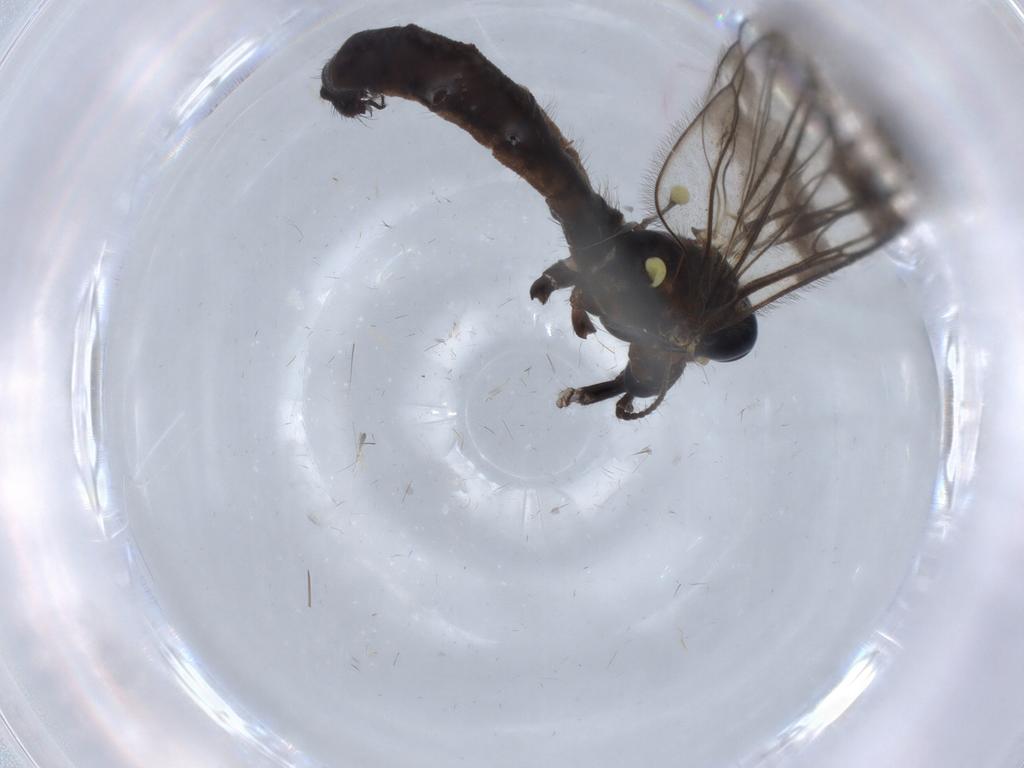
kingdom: Animalia
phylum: Arthropoda
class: Insecta
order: Diptera
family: Limoniidae
